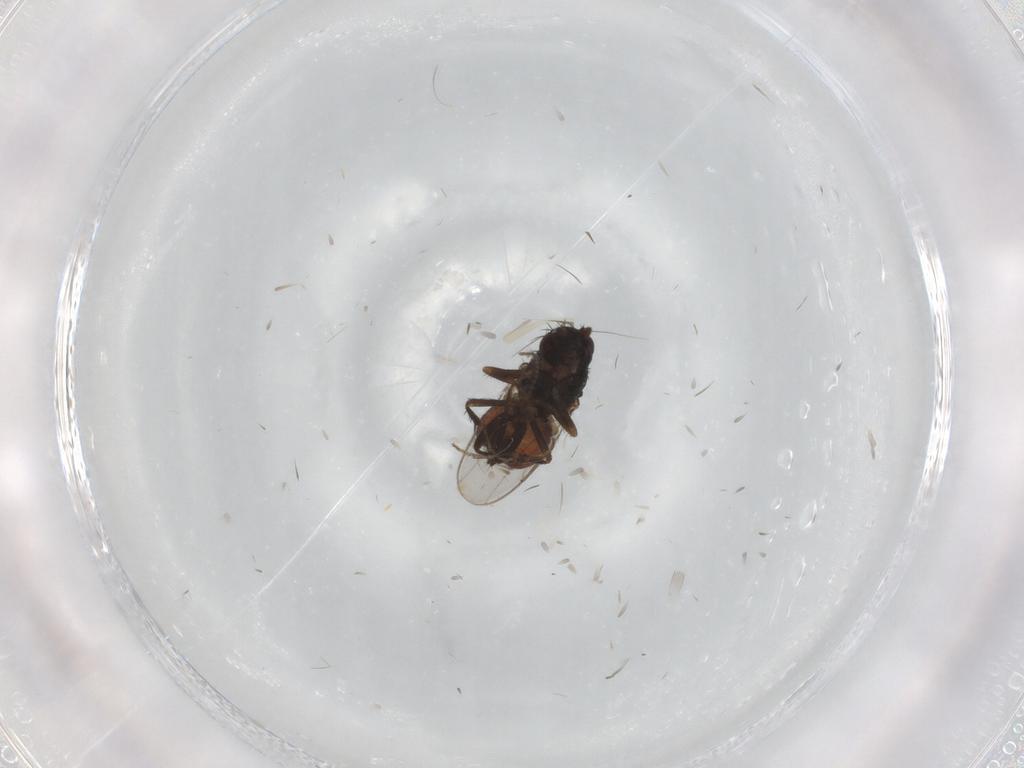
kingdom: Animalia
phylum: Arthropoda
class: Insecta
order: Diptera
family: Sphaeroceridae
